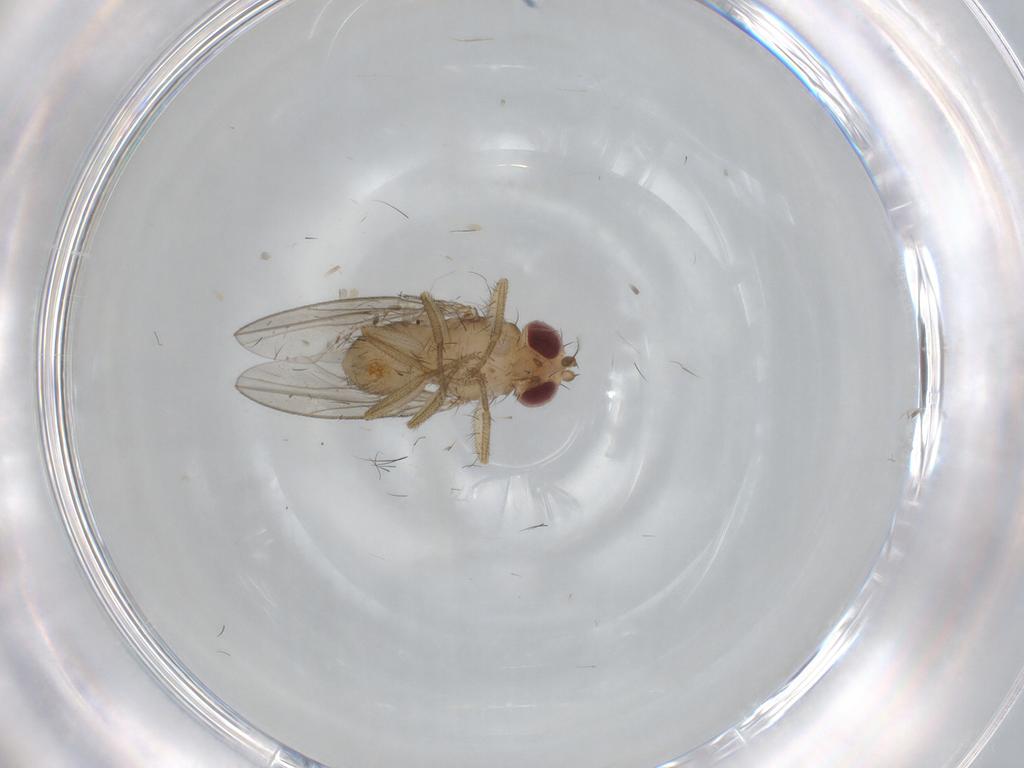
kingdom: Animalia
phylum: Arthropoda
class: Insecta
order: Diptera
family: Drosophilidae
